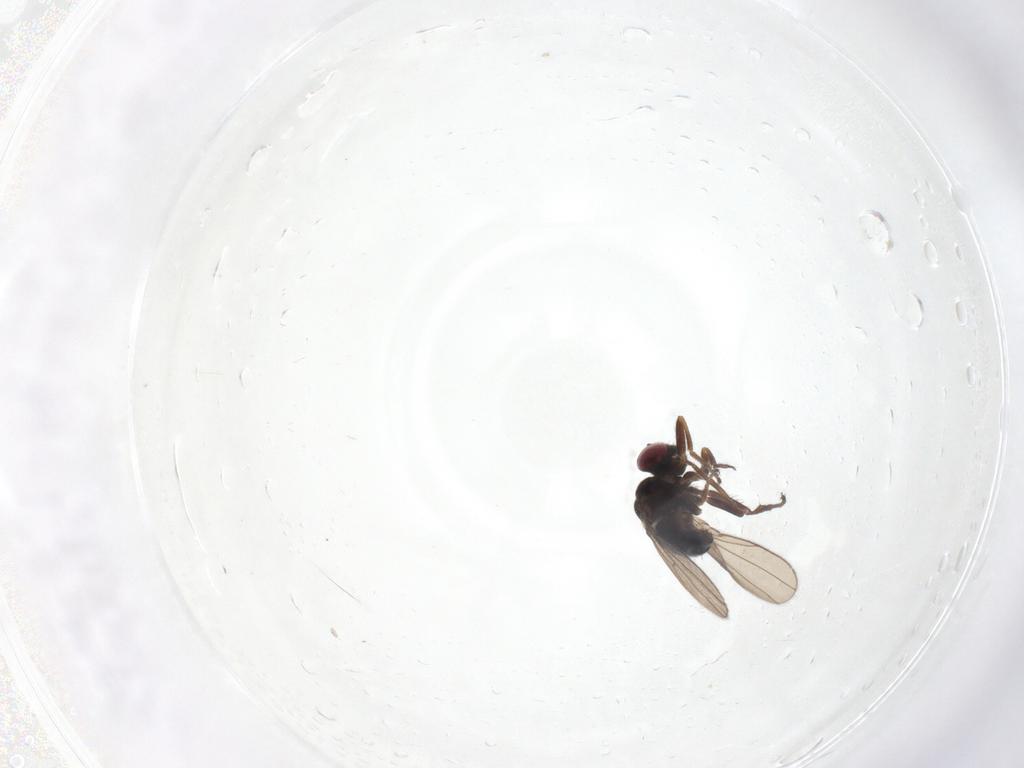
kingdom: Animalia
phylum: Arthropoda
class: Insecta
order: Diptera
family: Ephydridae
